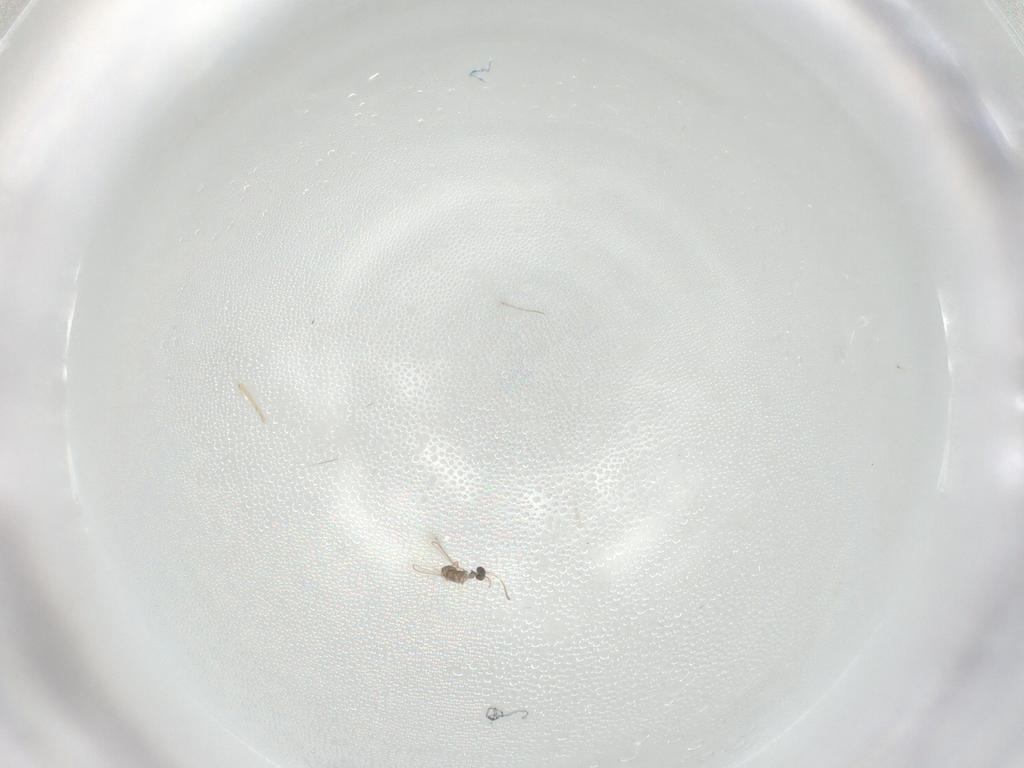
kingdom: Animalia
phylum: Arthropoda
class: Insecta
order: Hymenoptera
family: Mymaridae
